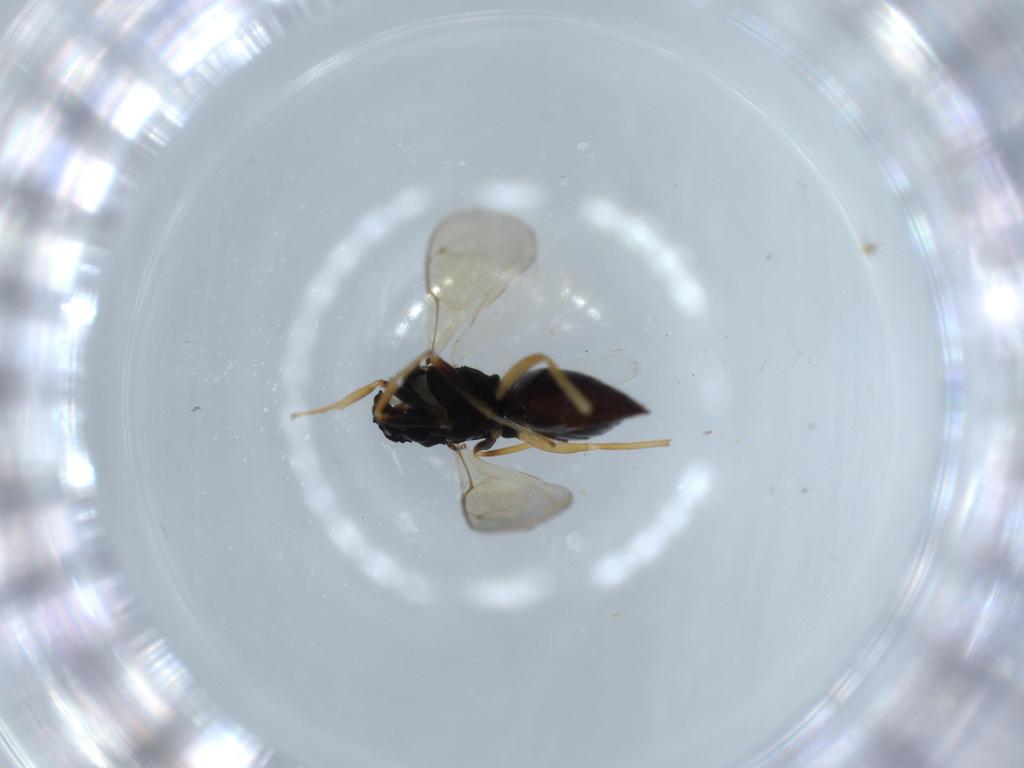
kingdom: Animalia
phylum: Arthropoda
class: Insecta
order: Hymenoptera
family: Pteromalidae
